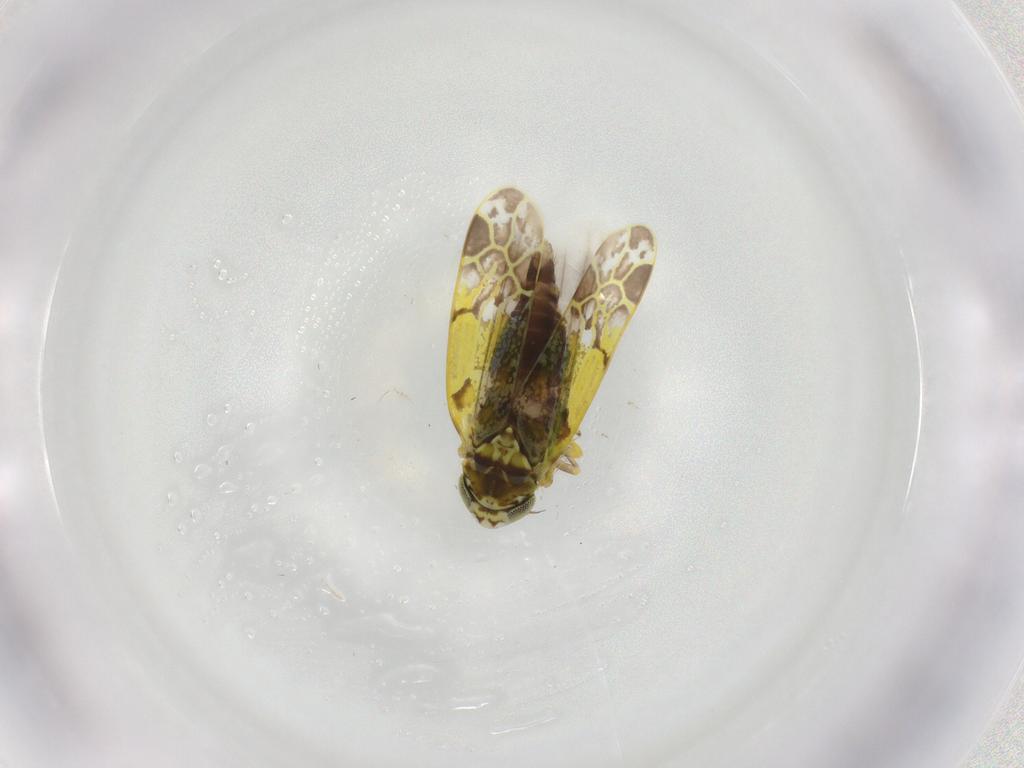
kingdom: Animalia
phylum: Arthropoda
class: Insecta
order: Hemiptera
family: Cicadellidae
